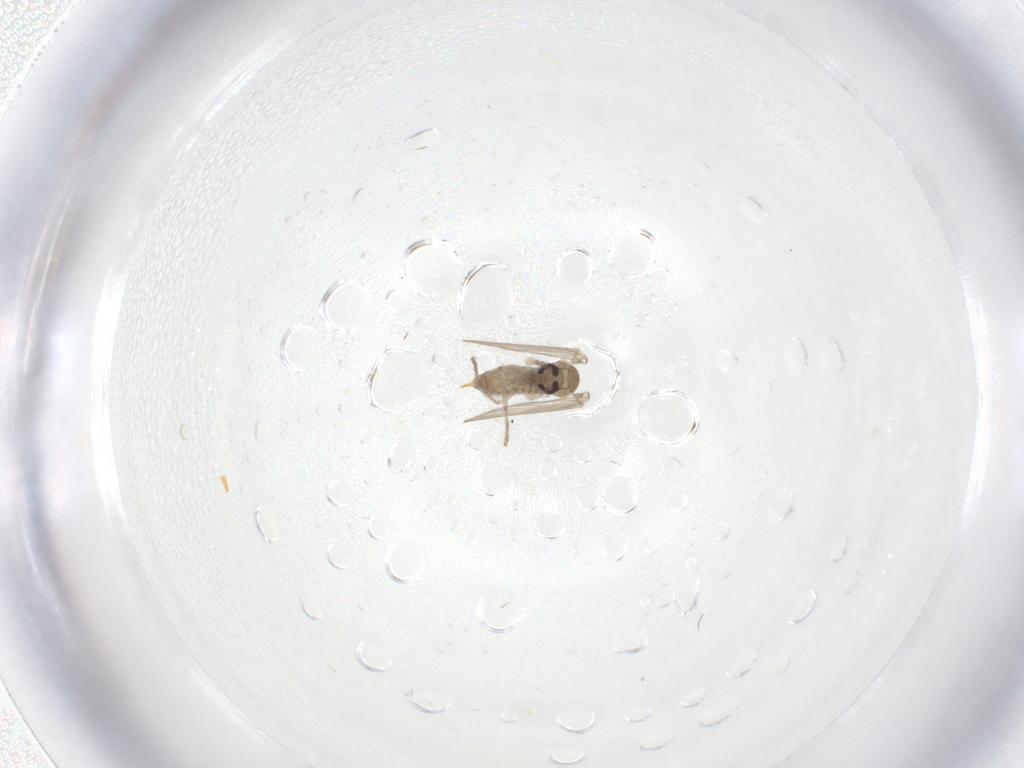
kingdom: Animalia
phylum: Arthropoda
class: Insecta
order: Diptera
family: Psychodidae
